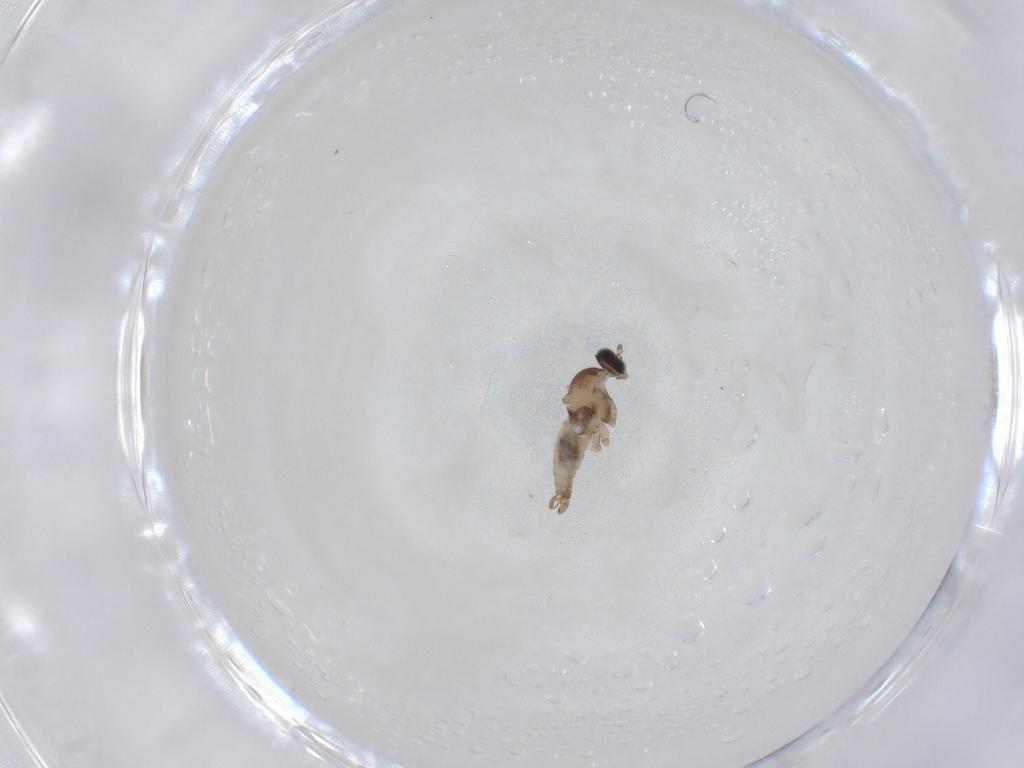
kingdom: Animalia
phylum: Arthropoda
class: Insecta
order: Diptera
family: Cecidomyiidae
